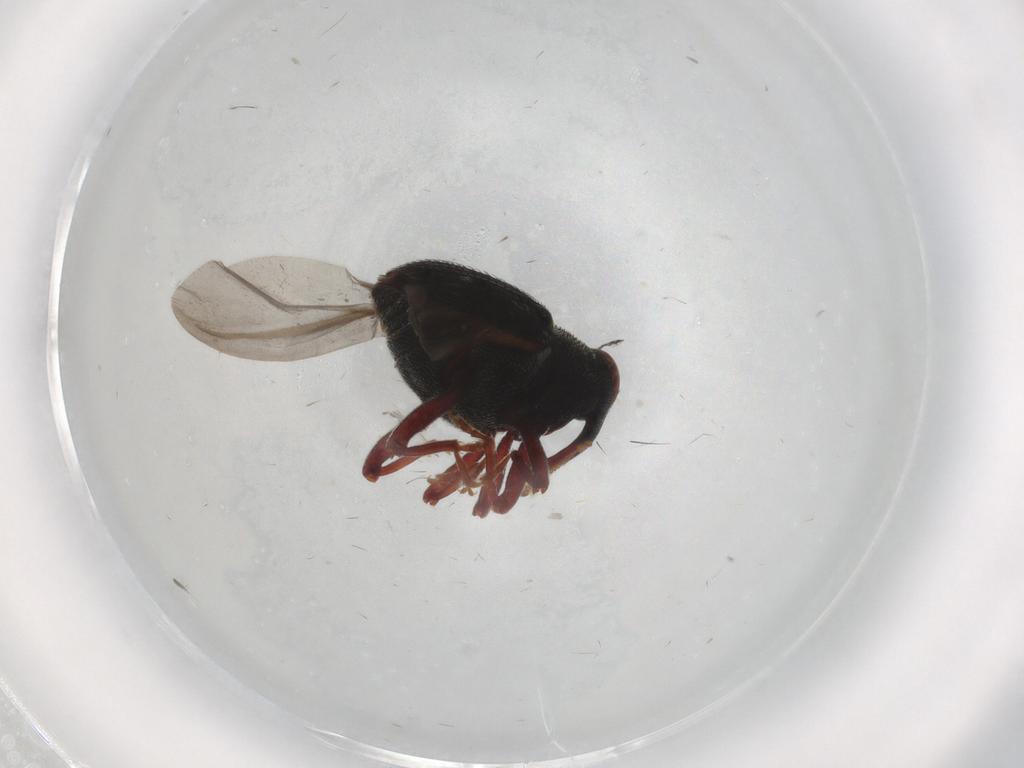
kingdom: Animalia
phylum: Arthropoda
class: Insecta
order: Coleoptera
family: Curculionidae
